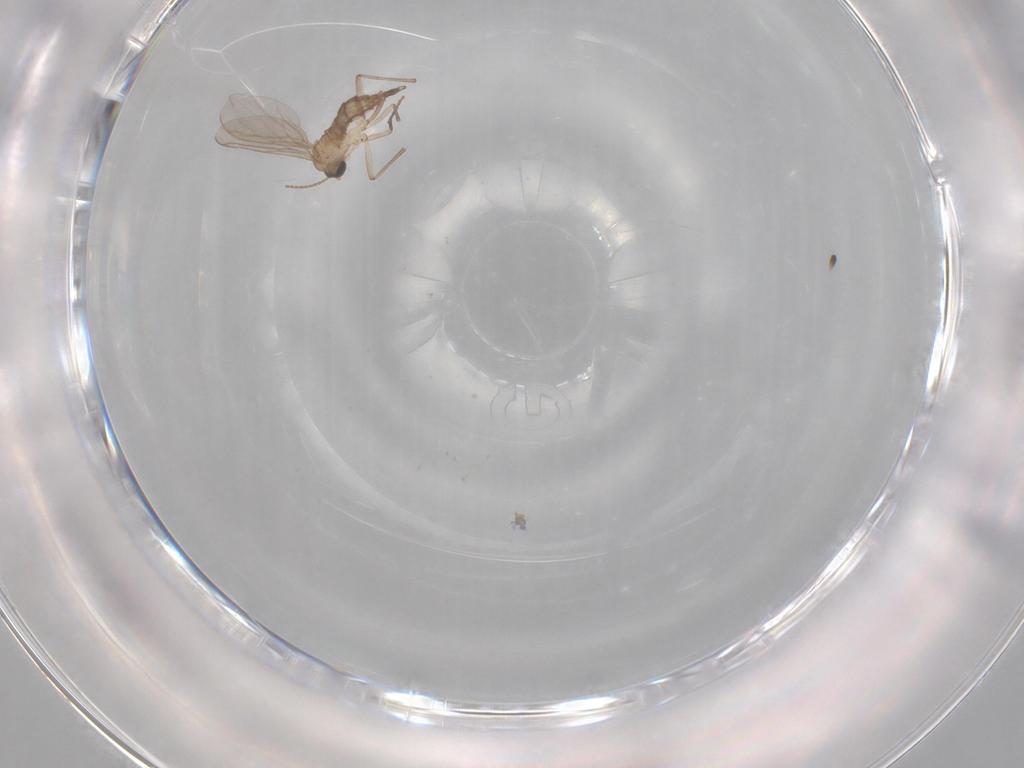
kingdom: Animalia
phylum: Arthropoda
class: Insecta
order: Diptera
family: Sciaridae
